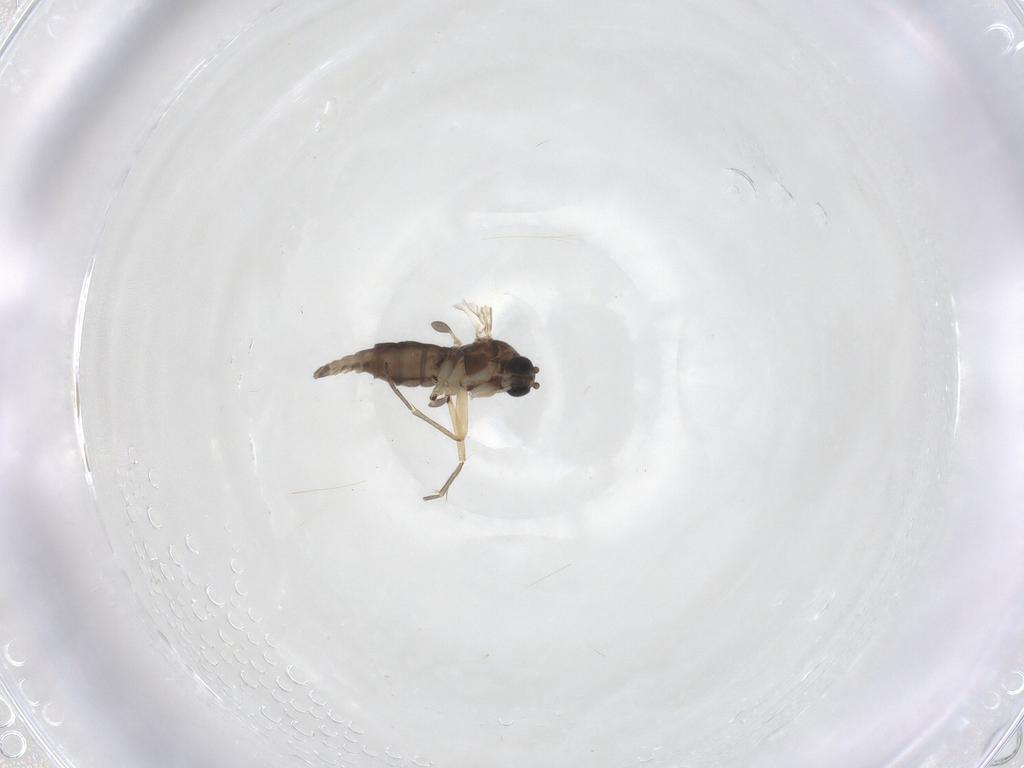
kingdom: Animalia
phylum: Arthropoda
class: Insecta
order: Diptera
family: Sciaridae
